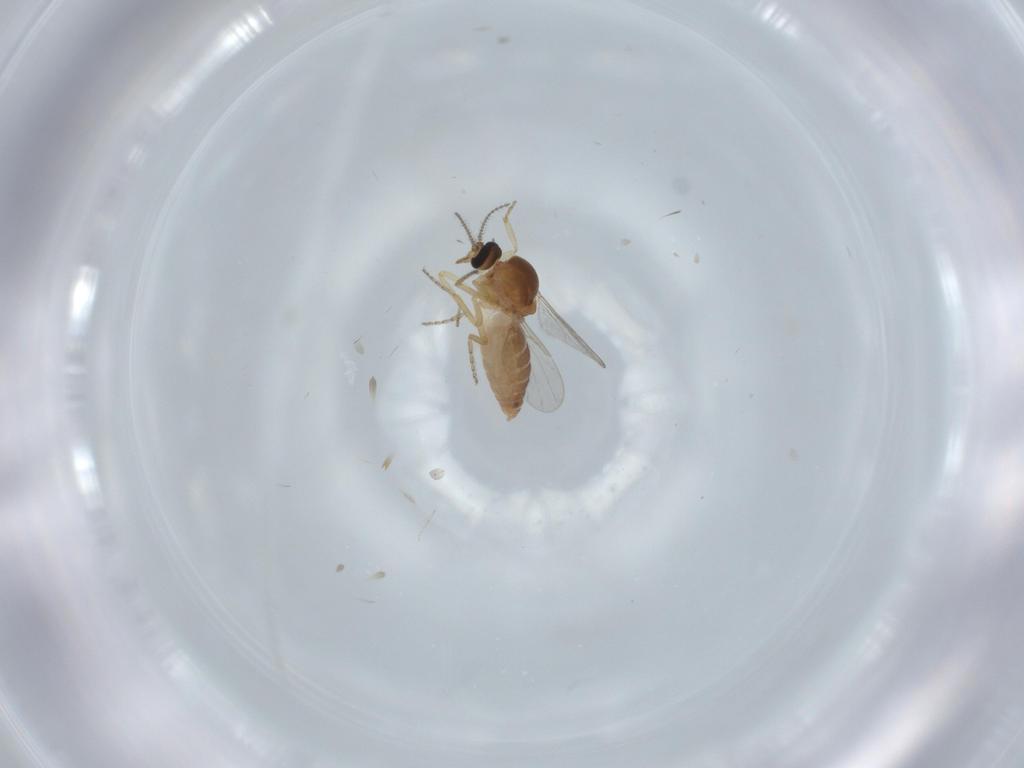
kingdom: Animalia
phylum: Arthropoda
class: Insecta
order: Diptera
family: Ceratopogonidae
